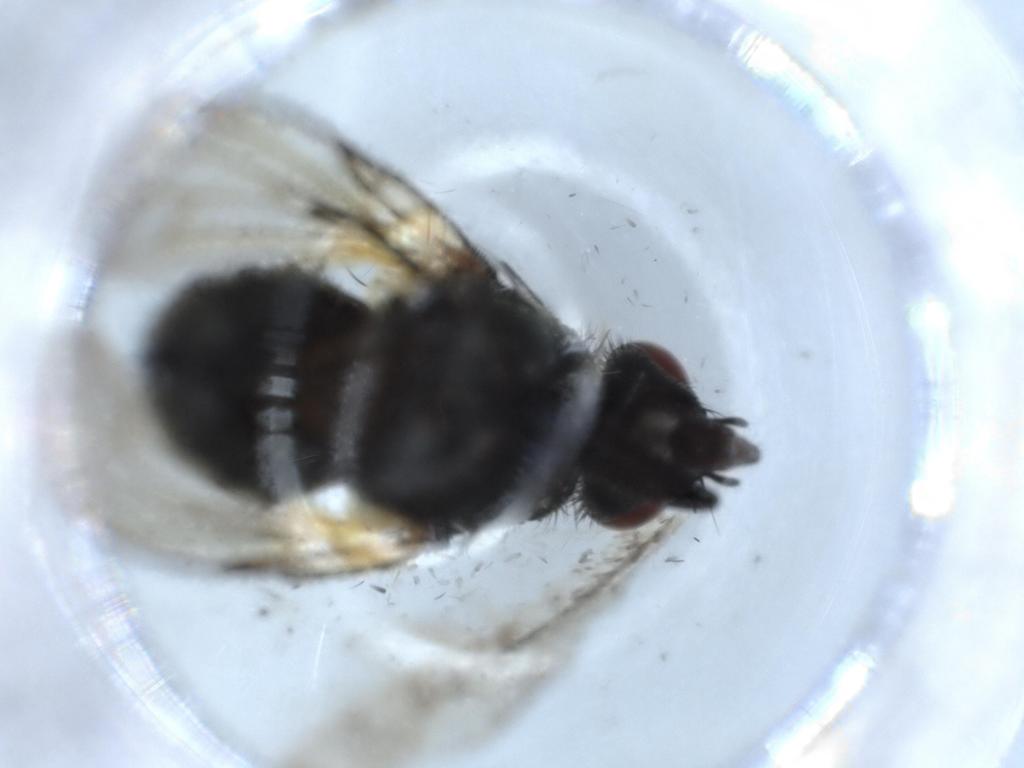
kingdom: Animalia
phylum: Arthropoda
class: Insecta
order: Diptera
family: Muscidae
